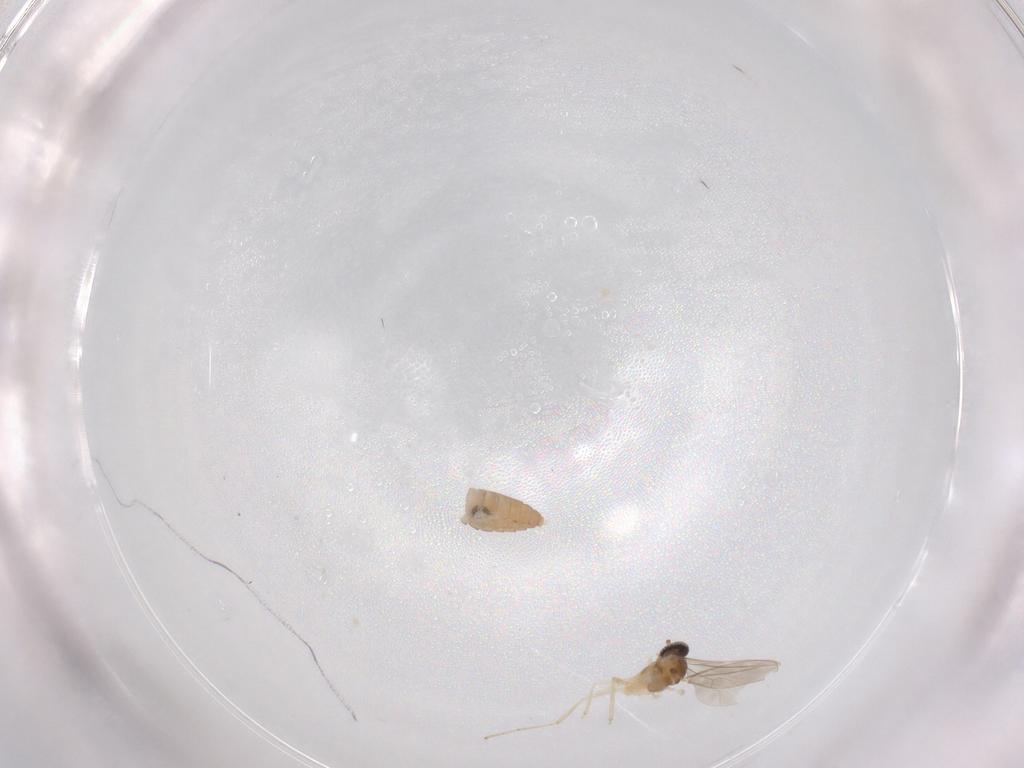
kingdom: Animalia
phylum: Arthropoda
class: Insecta
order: Diptera
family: Cecidomyiidae
